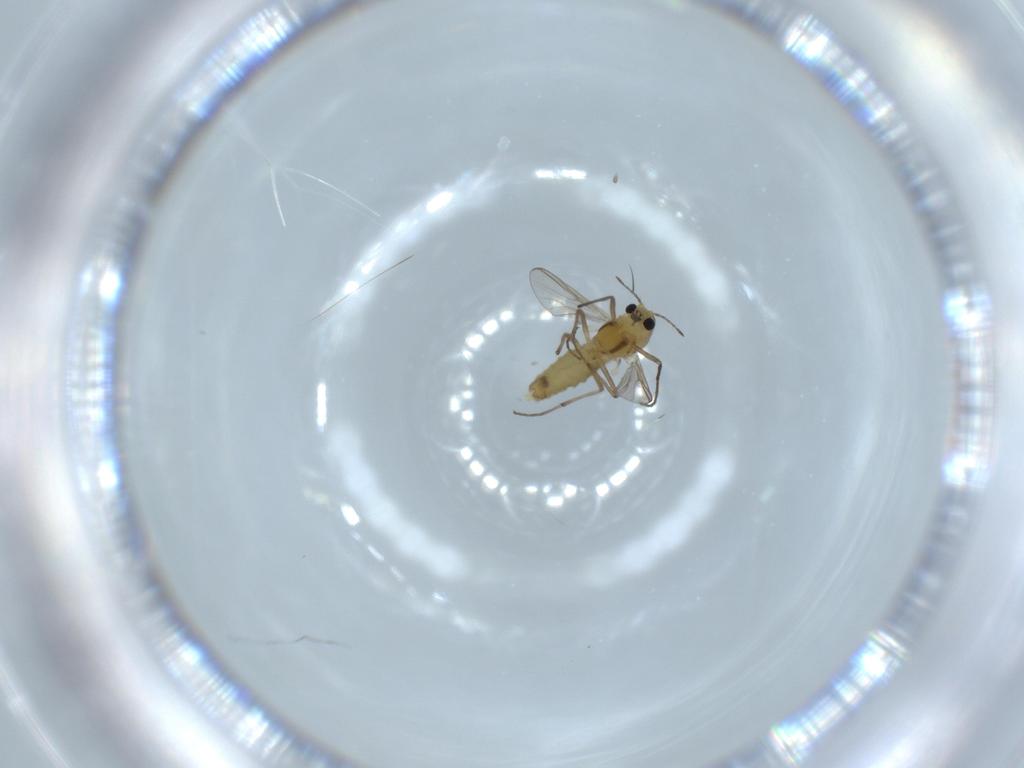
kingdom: Animalia
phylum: Arthropoda
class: Insecta
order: Diptera
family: Chironomidae
